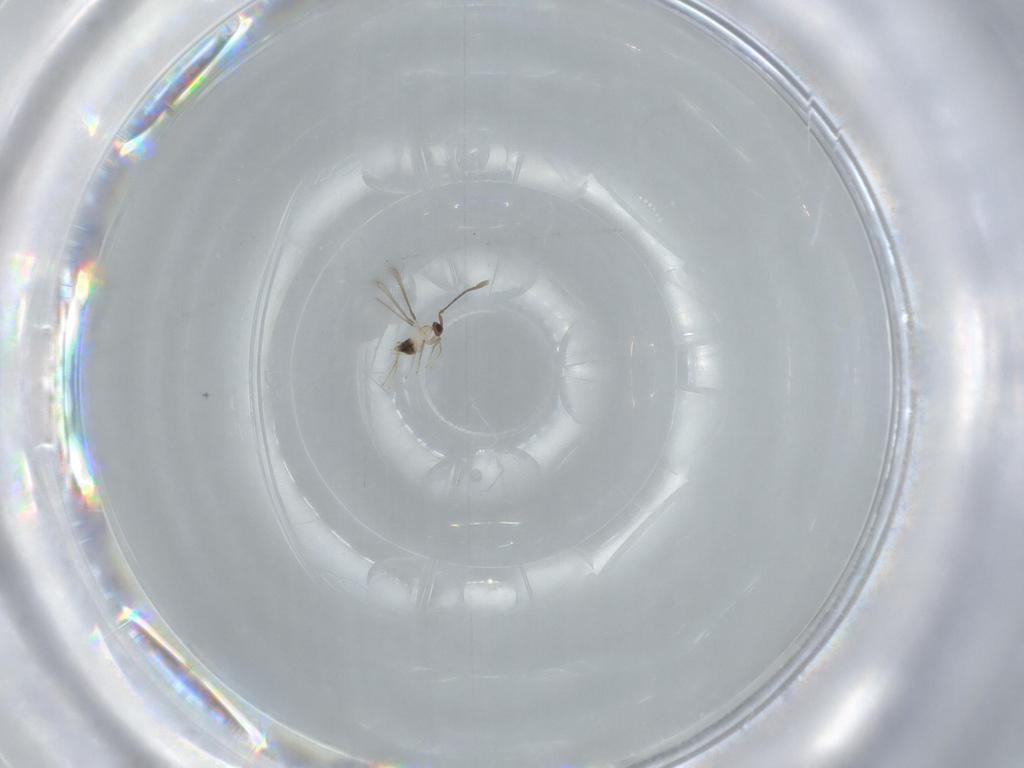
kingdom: Animalia
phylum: Arthropoda
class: Insecta
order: Hymenoptera
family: Mymaridae
